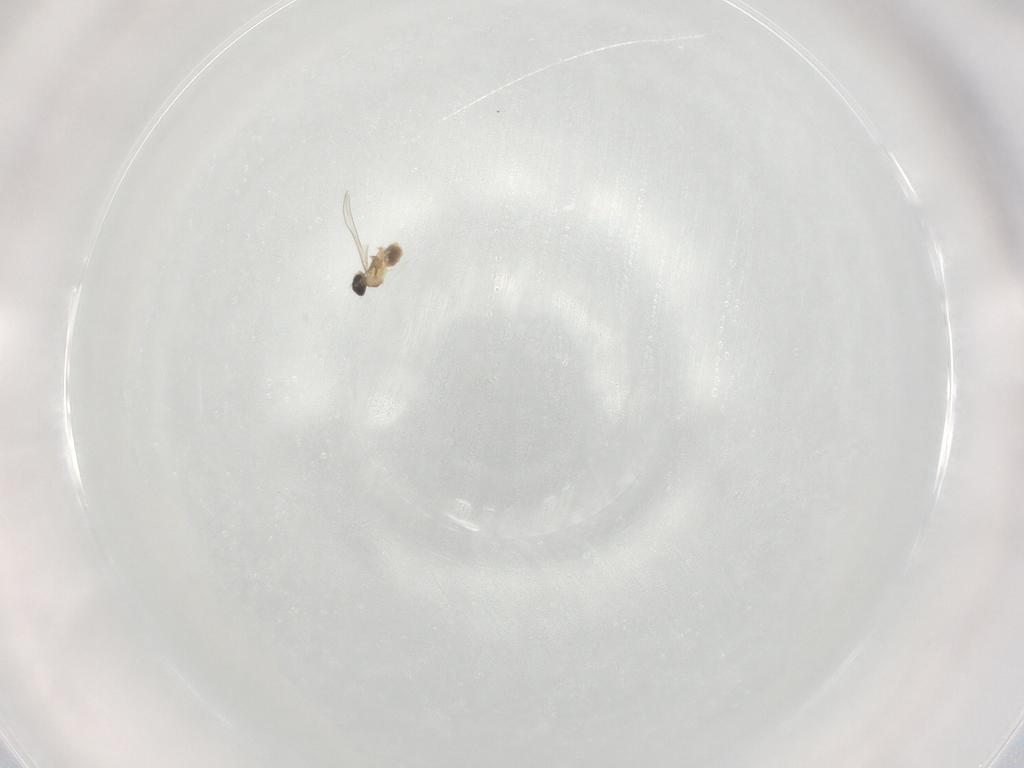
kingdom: Animalia
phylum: Arthropoda
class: Insecta
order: Diptera
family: Cecidomyiidae
